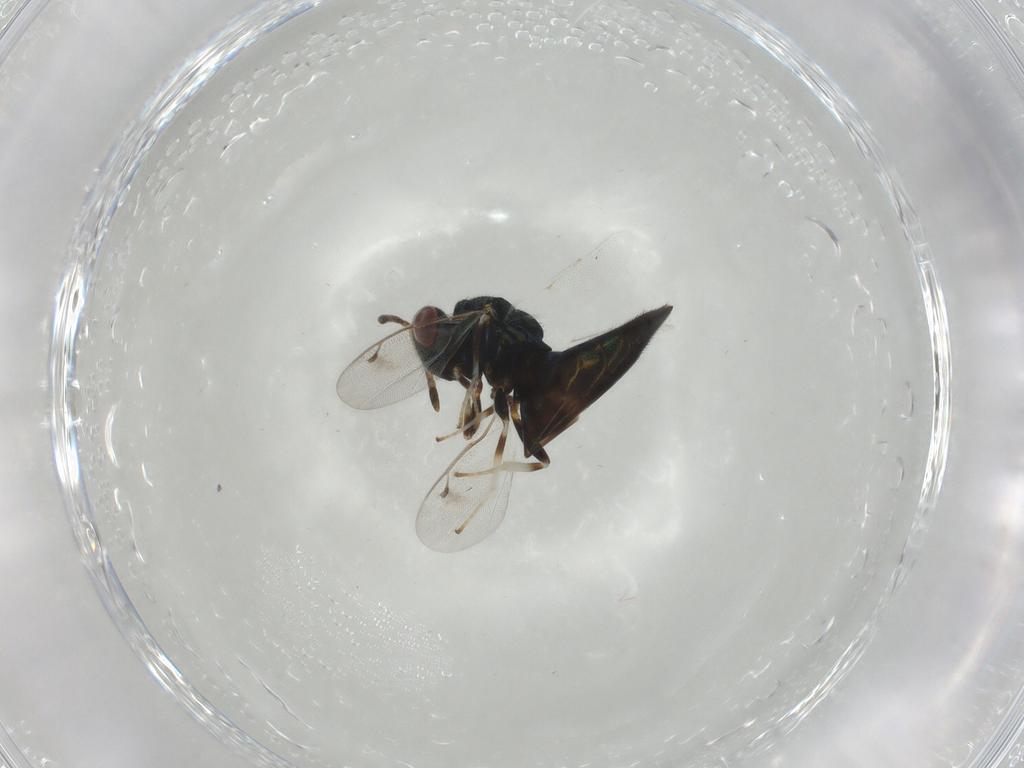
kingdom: Animalia
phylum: Arthropoda
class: Insecta
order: Hymenoptera
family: Pteromalidae
